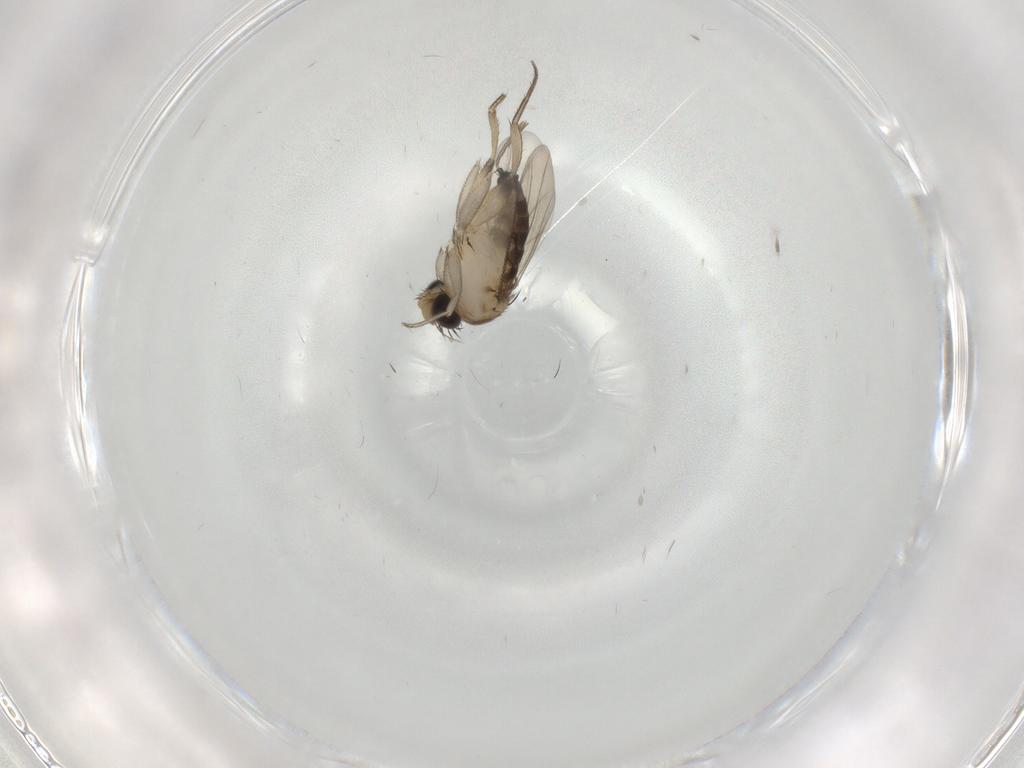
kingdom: Animalia
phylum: Arthropoda
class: Insecta
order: Diptera
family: Phoridae
